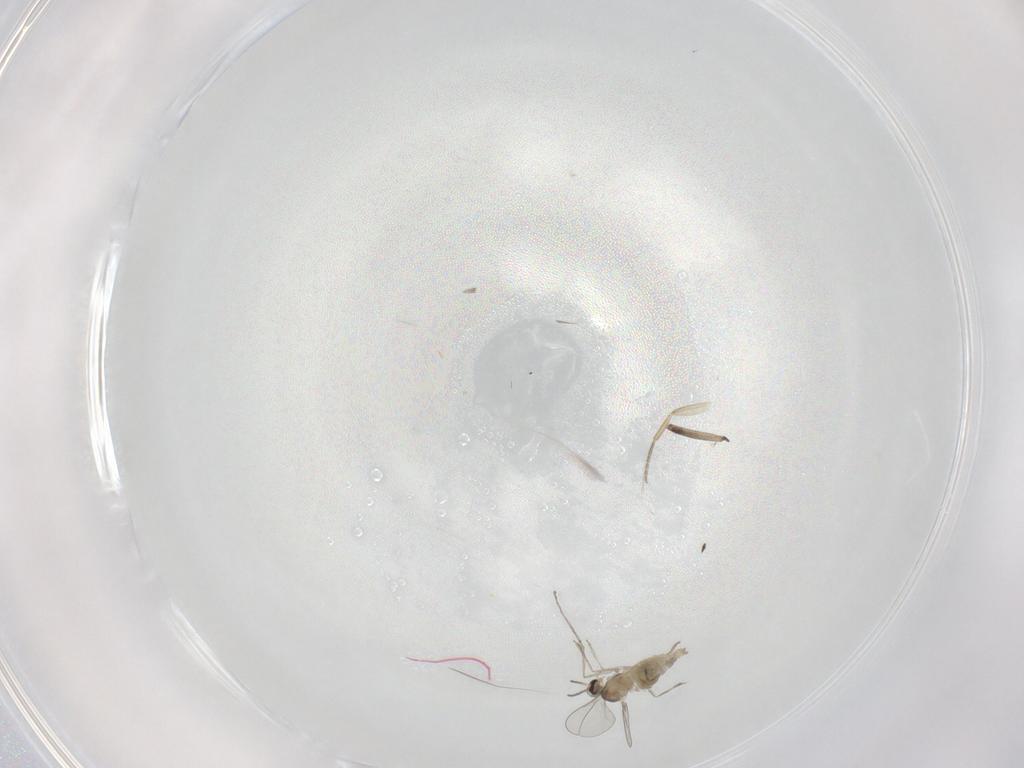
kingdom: Animalia
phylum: Arthropoda
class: Insecta
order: Diptera
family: Cecidomyiidae
